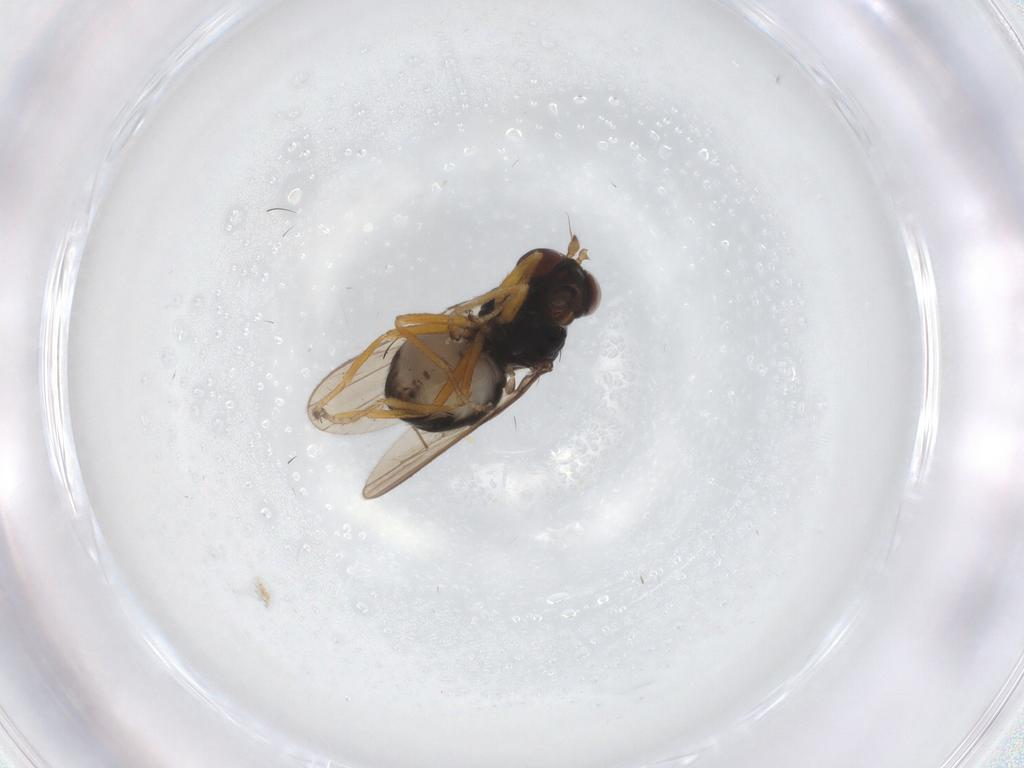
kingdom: Animalia
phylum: Arthropoda
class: Insecta
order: Diptera
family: Ephydridae
